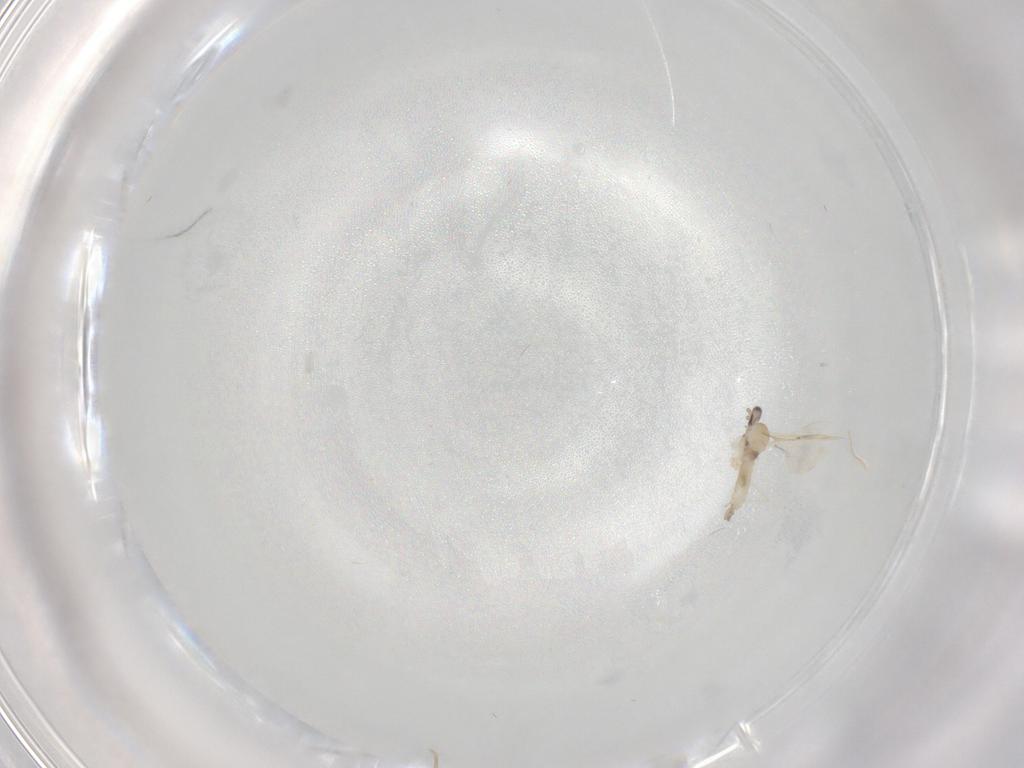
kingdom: Animalia
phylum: Arthropoda
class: Insecta
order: Diptera
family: Cecidomyiidae
